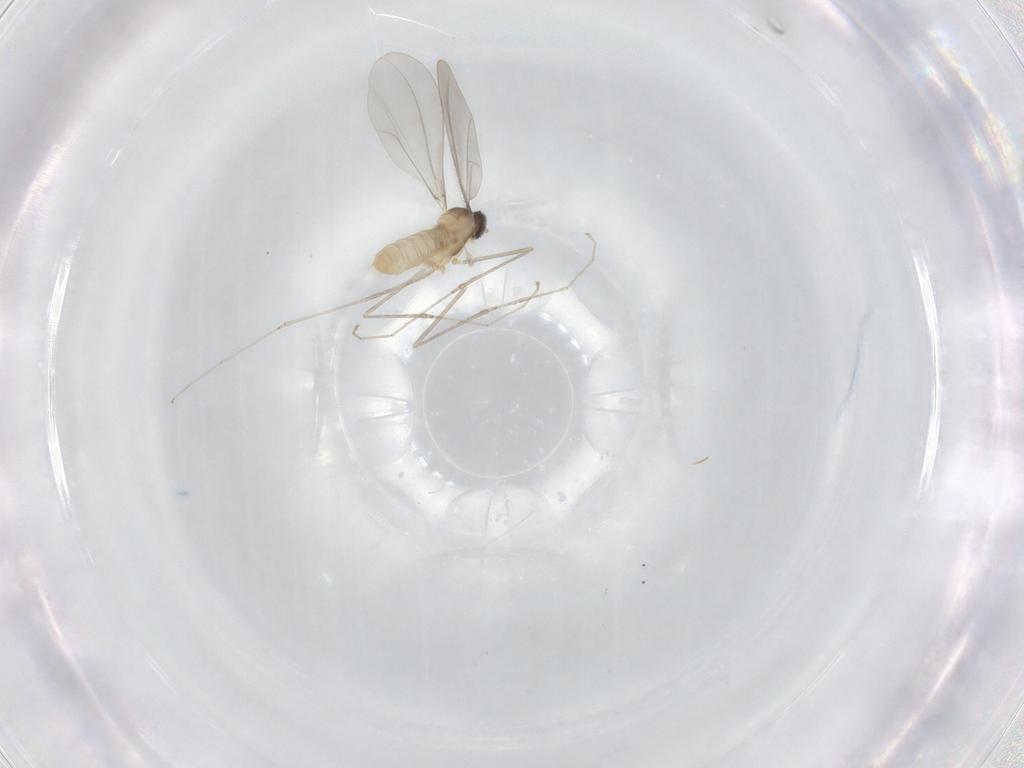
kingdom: Animalia
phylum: Arthropoda
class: Insecta
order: Diptera
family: Cecidomyiidae
